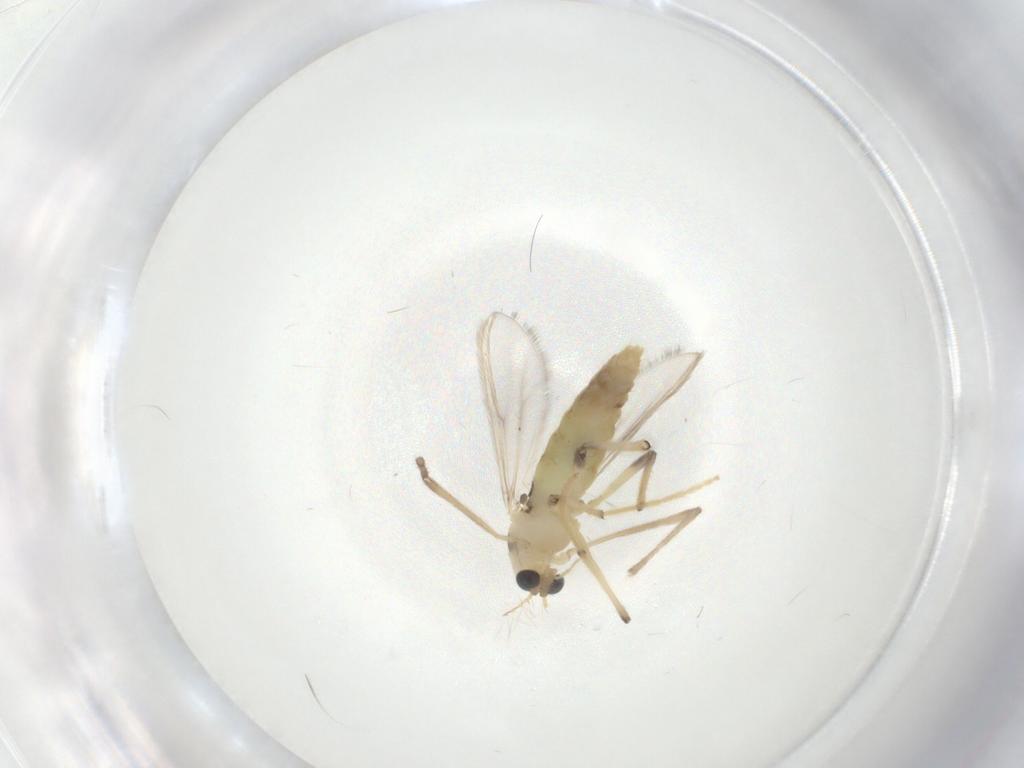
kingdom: Animalia
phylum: Arthropoda
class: Insecta
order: Diptera
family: Chironomidae
